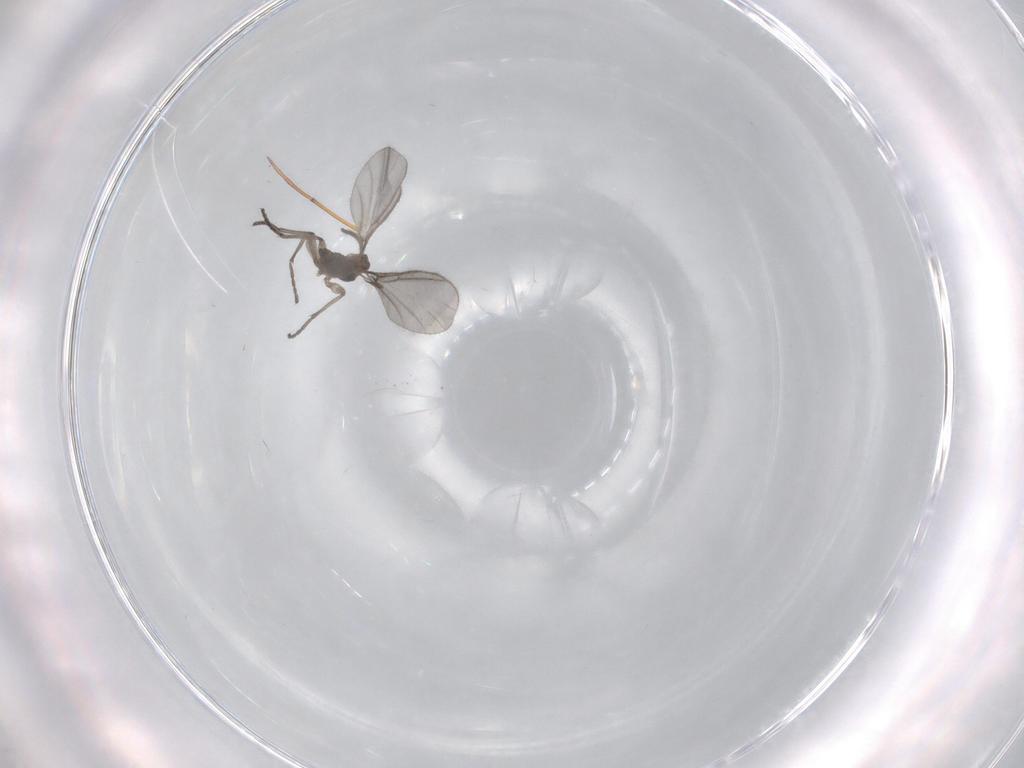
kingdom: Animalia
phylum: Arthropoda
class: Insecta
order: Diptera
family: Sciaridae
